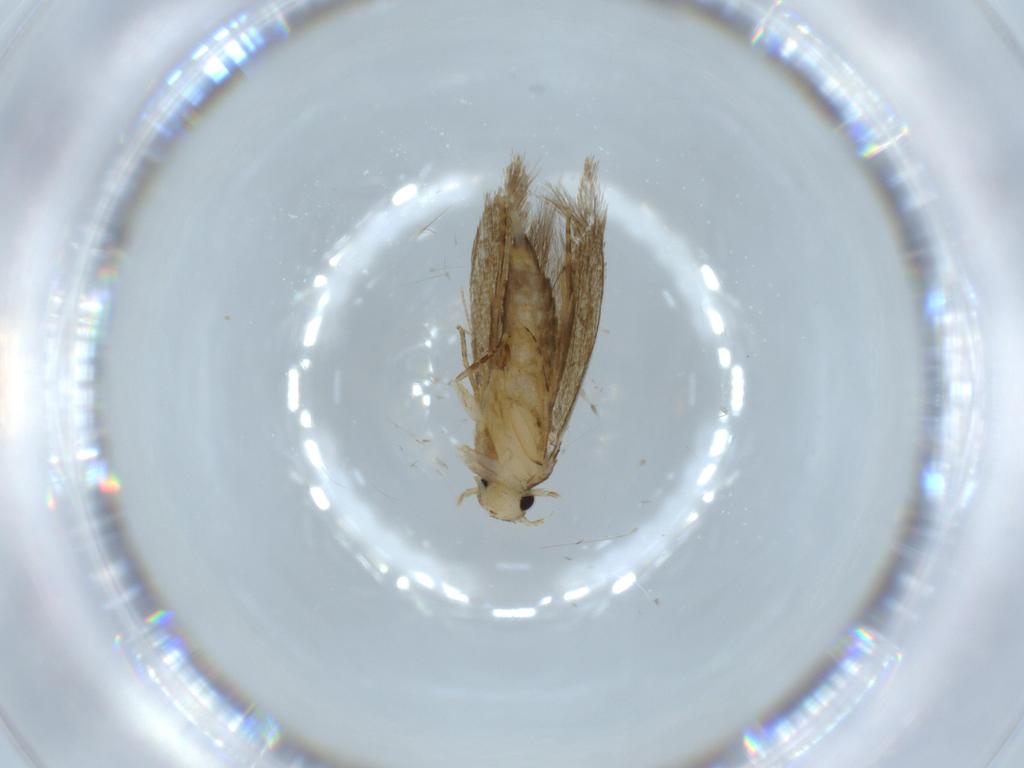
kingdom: Animalia
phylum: Arthropoda
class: Insecta
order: Lepidoptera
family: Tineidae
